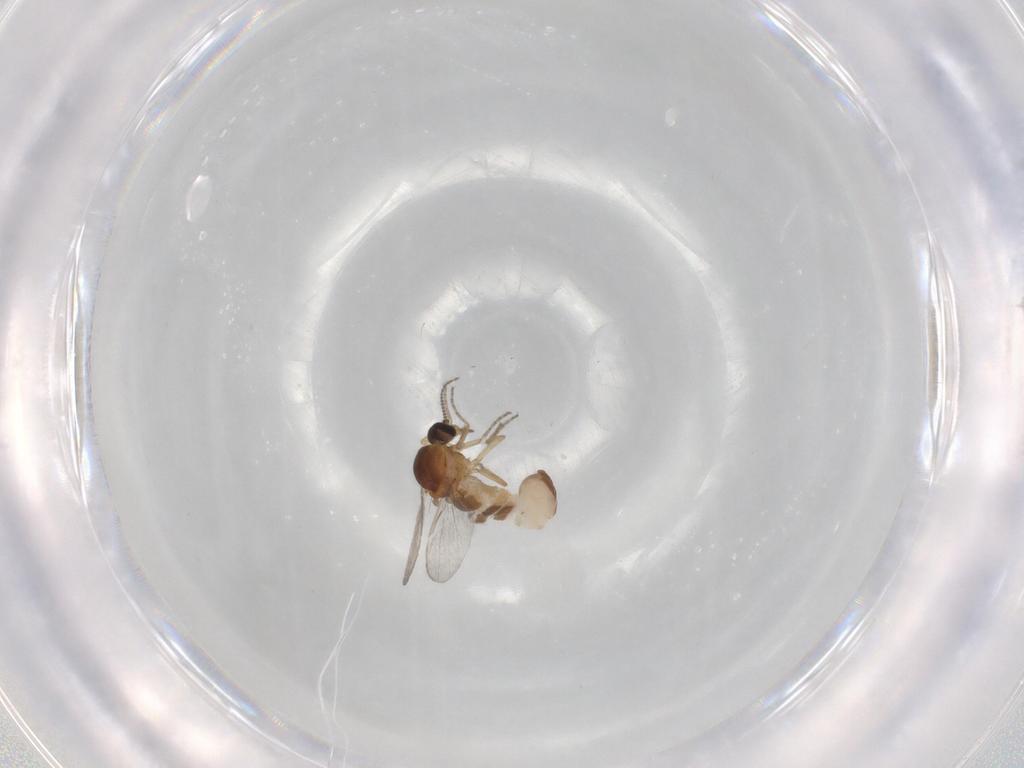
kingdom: Animalia
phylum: Arthropoda
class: Insecta
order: Diptera
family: Ceratopogonidae
